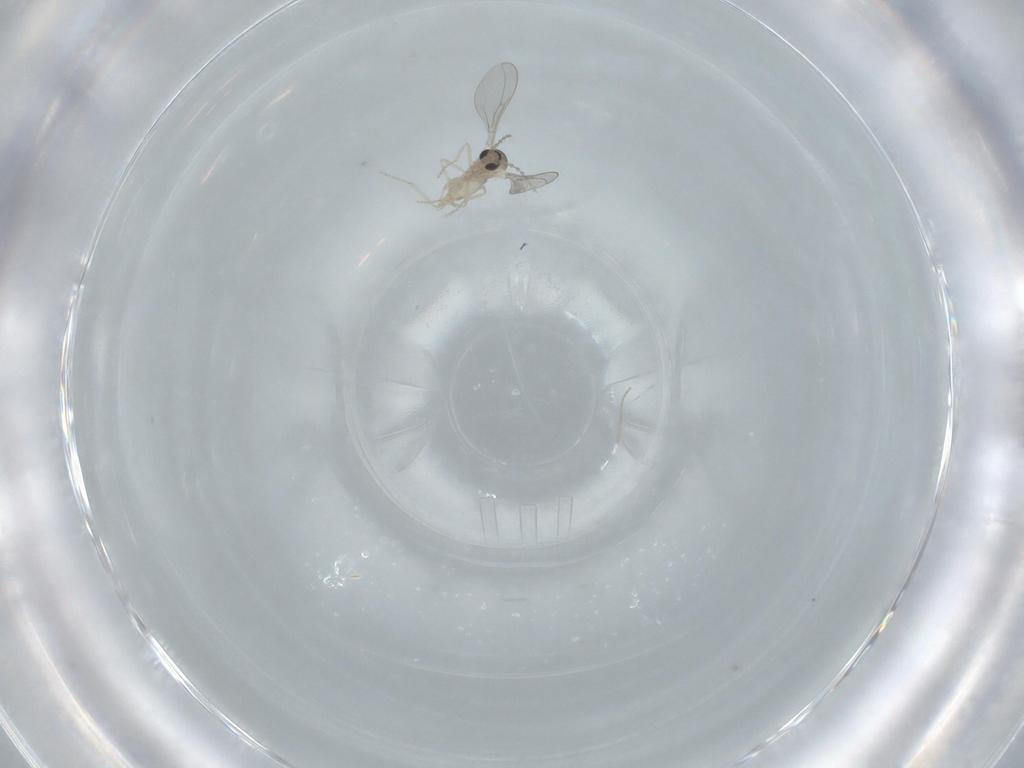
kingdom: Animalia
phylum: Arthropoda
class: Insecta
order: Diptera
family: Cecidomyiidae
